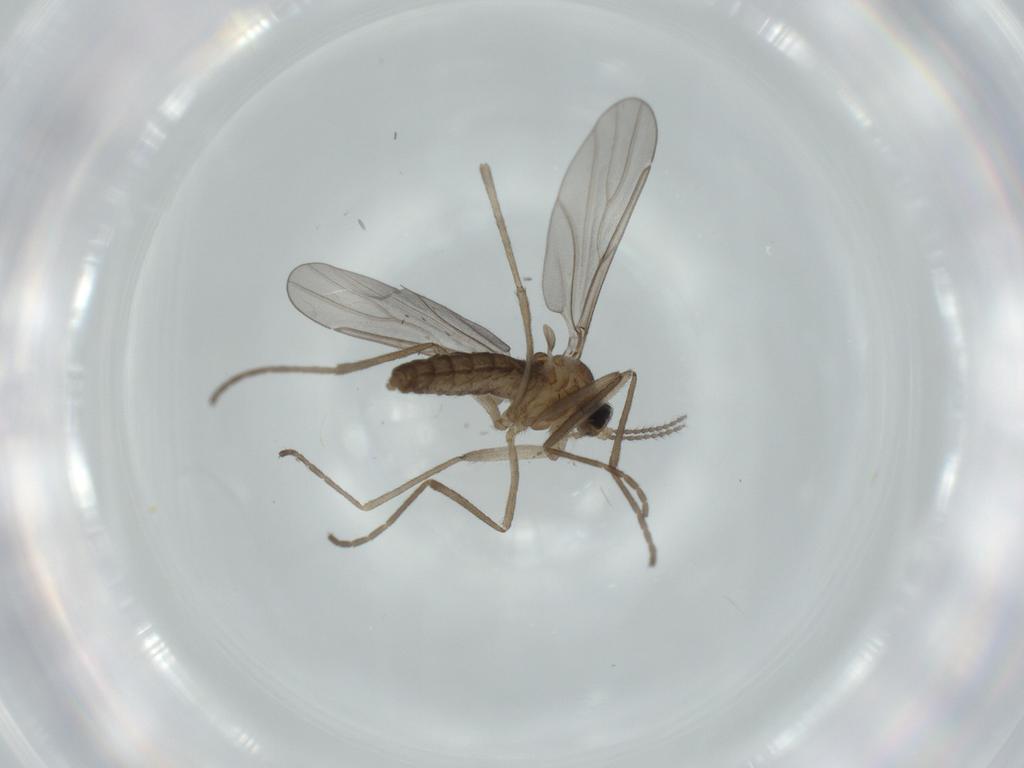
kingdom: Animalia
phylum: Arthropoda
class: Insecta
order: Diptera
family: Cecidomyiidae
